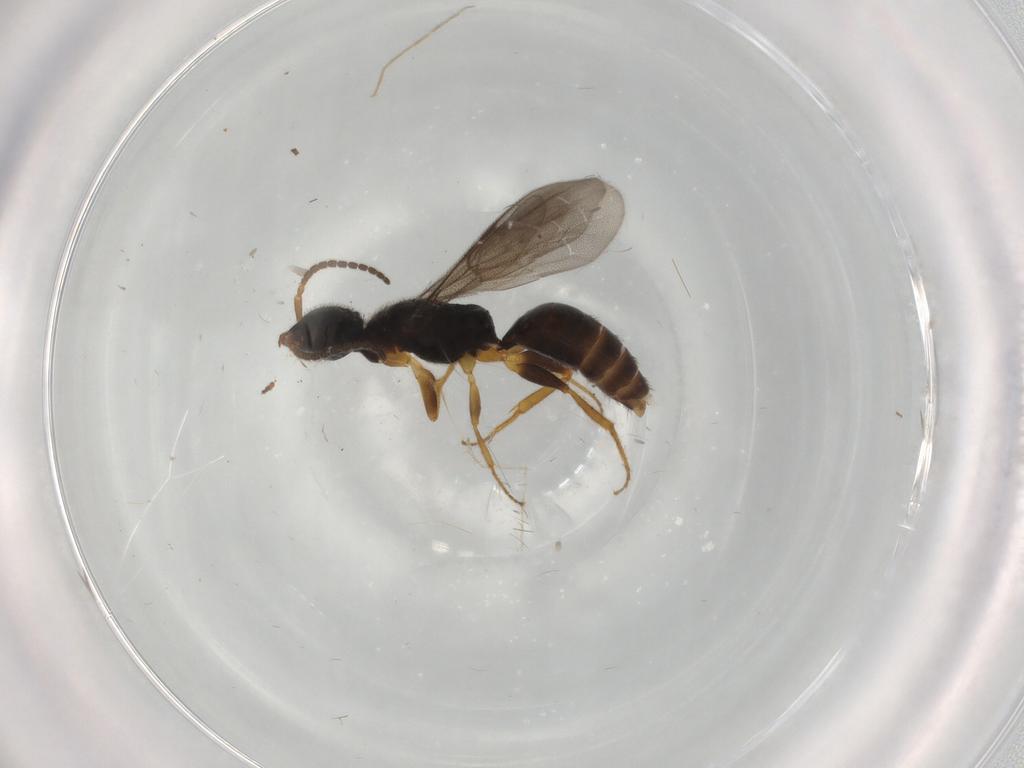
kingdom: Animalia
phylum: Arthropoda
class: Insecta
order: Hymenoptera
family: Bethylidae
